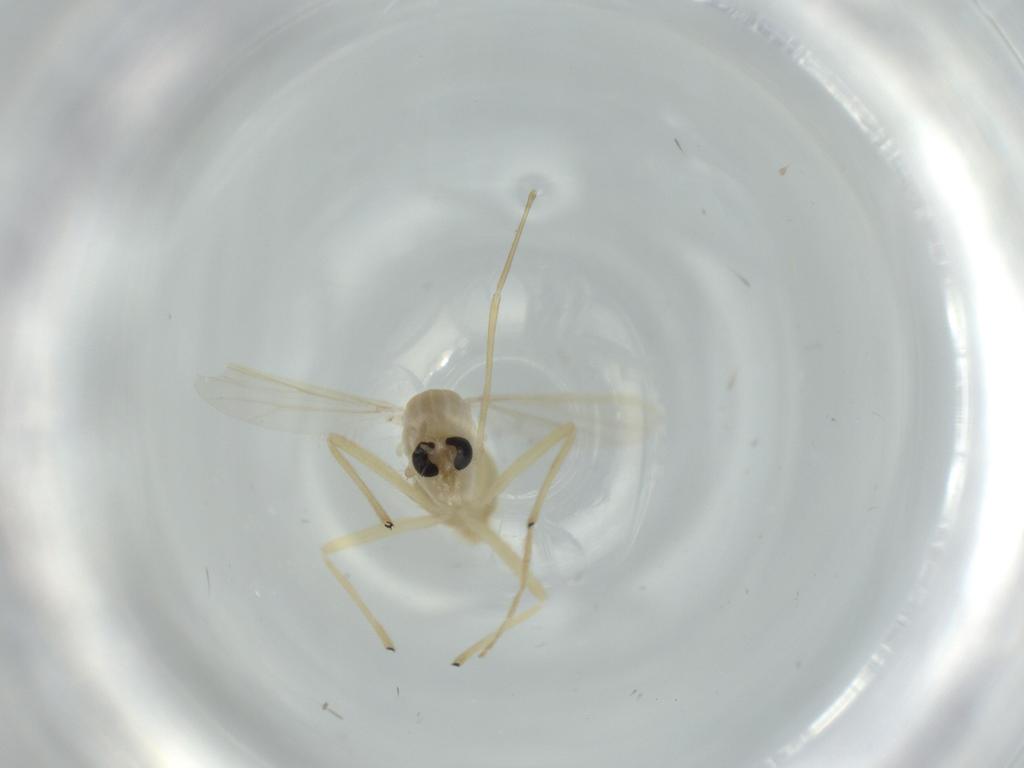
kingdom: Animalia
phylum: Arthropoda
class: Insecta
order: Diptera
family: Chironomidae
